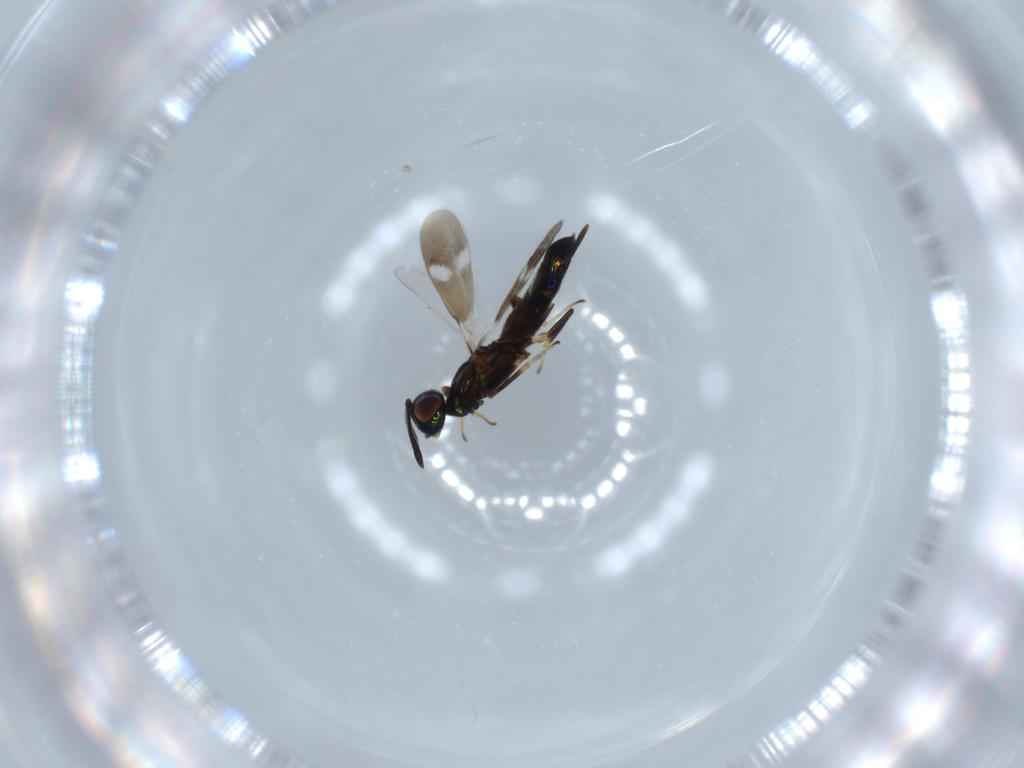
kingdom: Animalia
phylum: Arthropoda
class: Insecta
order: Hymenoptera
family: Eupelmidae
